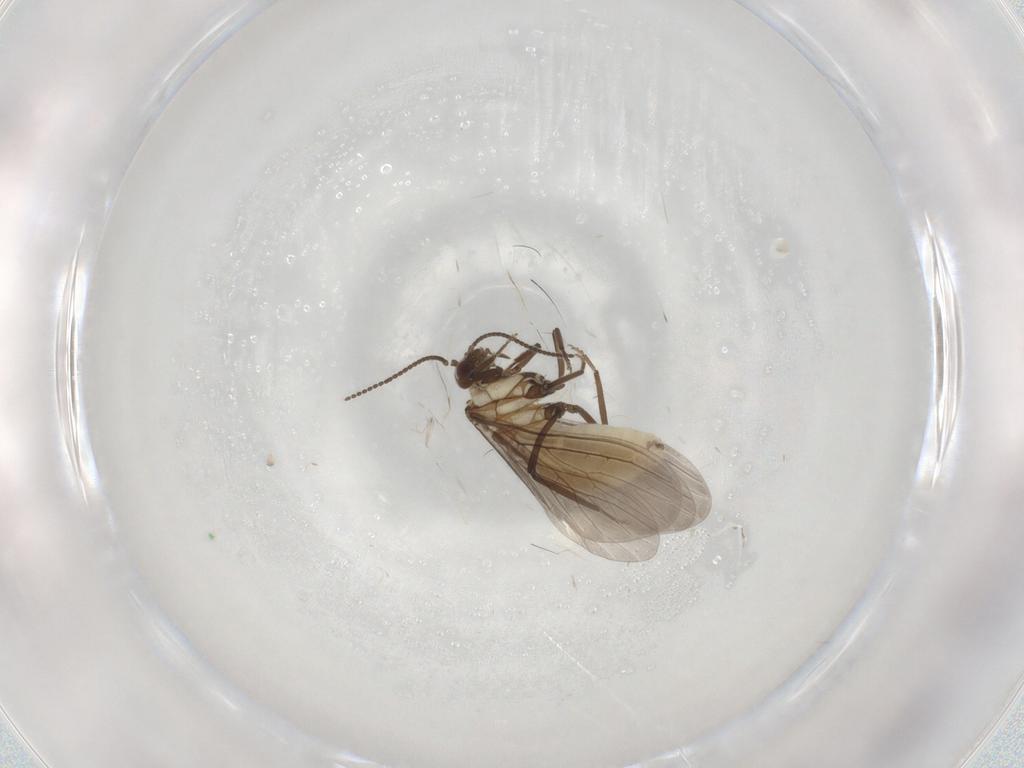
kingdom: Animalia
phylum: Arthropoda
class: Insecta
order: Neuroptera
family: Coniopterygidae
